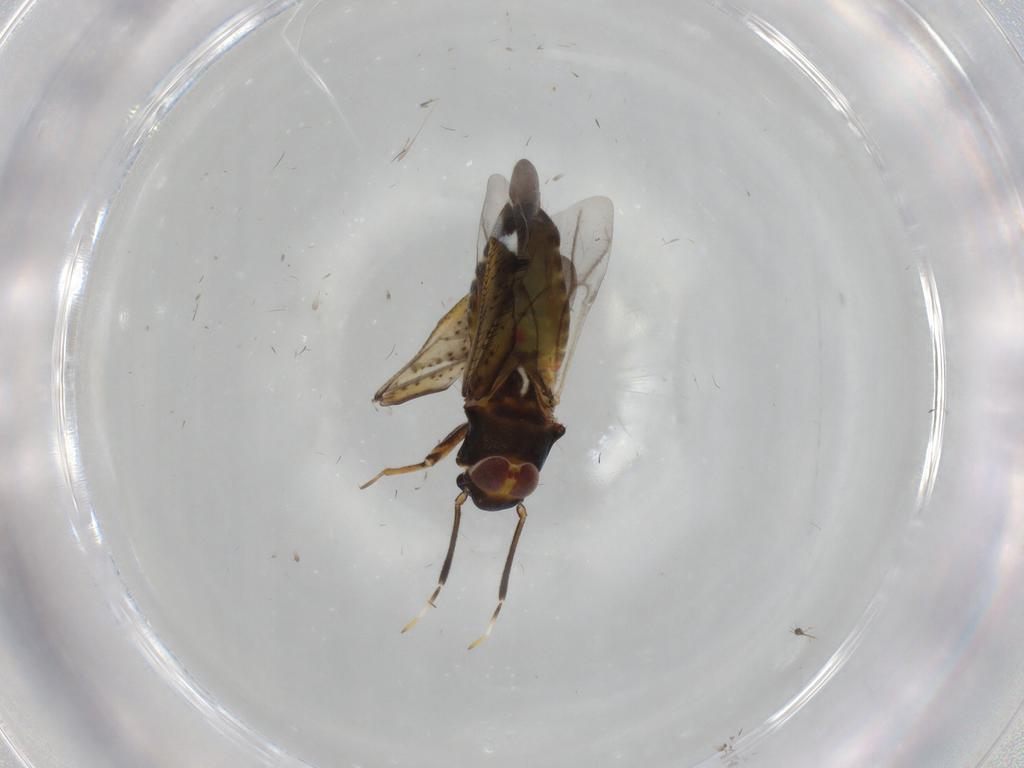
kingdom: Animalia
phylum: Arthropoda
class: Insecta
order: Hemiptera
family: Miridae
